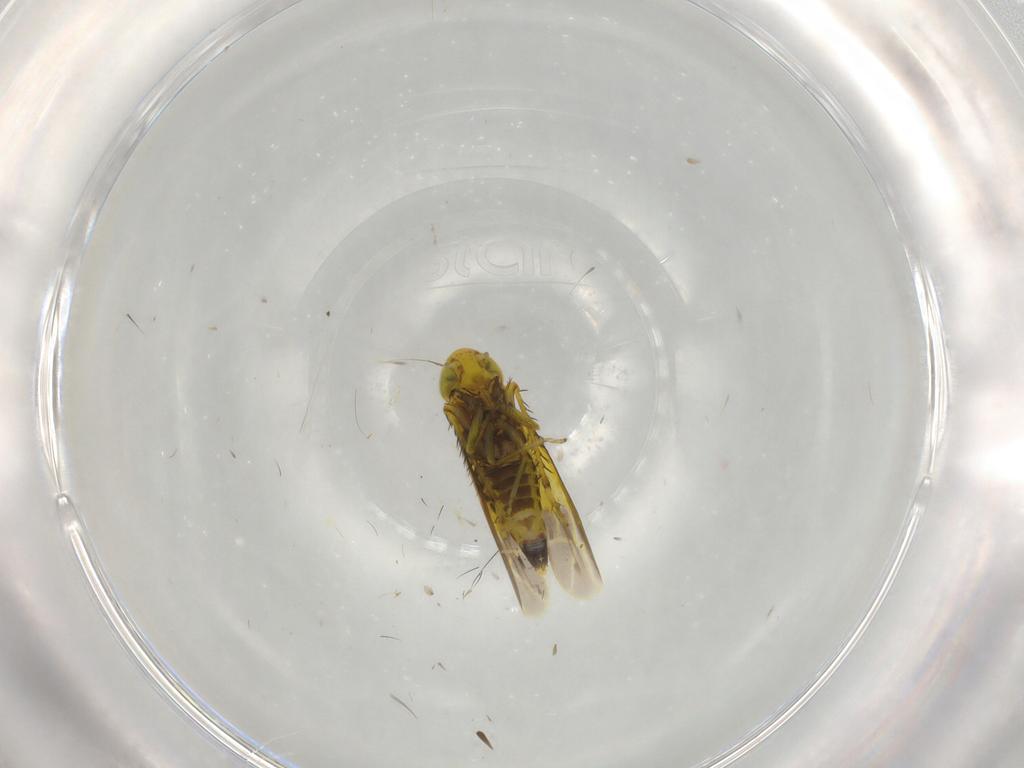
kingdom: Animalia
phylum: Arthropoda
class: Insecta
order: Hemiptera
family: Cicadellidae
